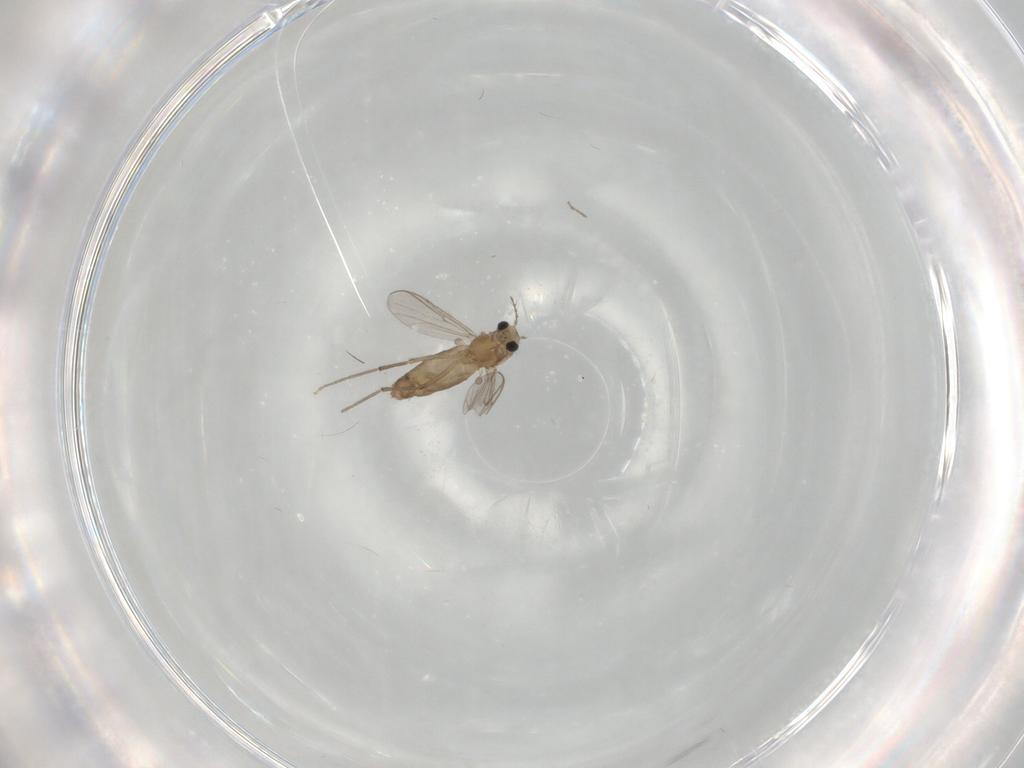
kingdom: Animalia
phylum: Arthropoda
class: Insecta
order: Diptera
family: Chironomidae
